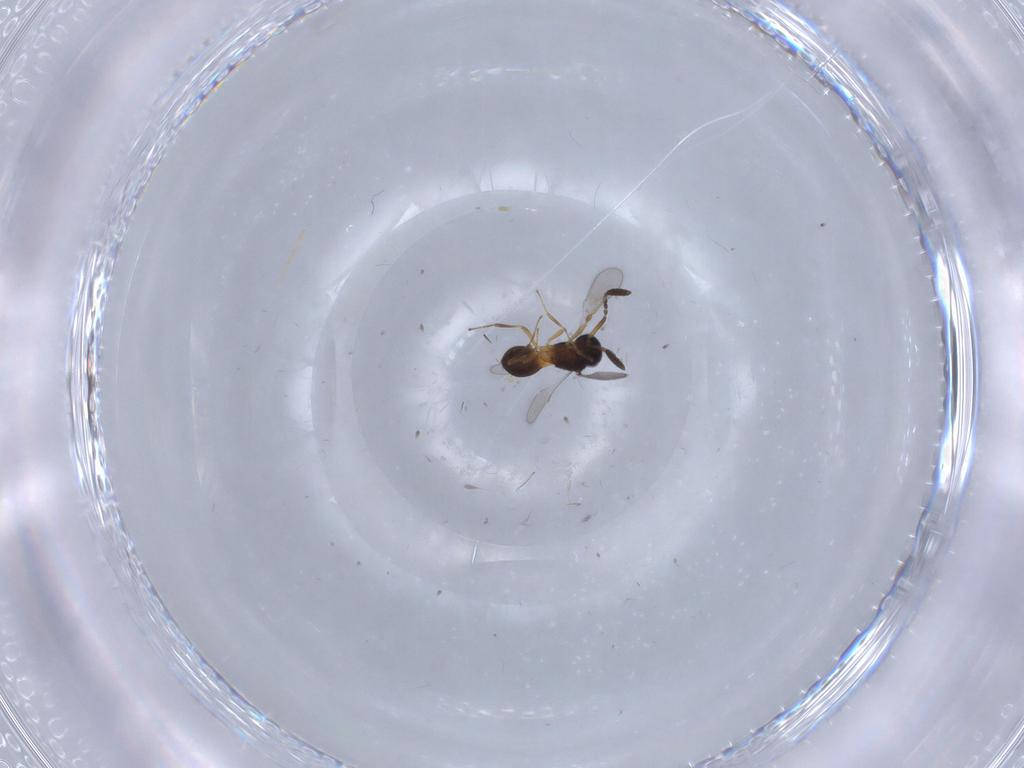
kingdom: Animalia
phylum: Arthropoda
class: Insecta
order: Hymenoptera
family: Scelionidae
